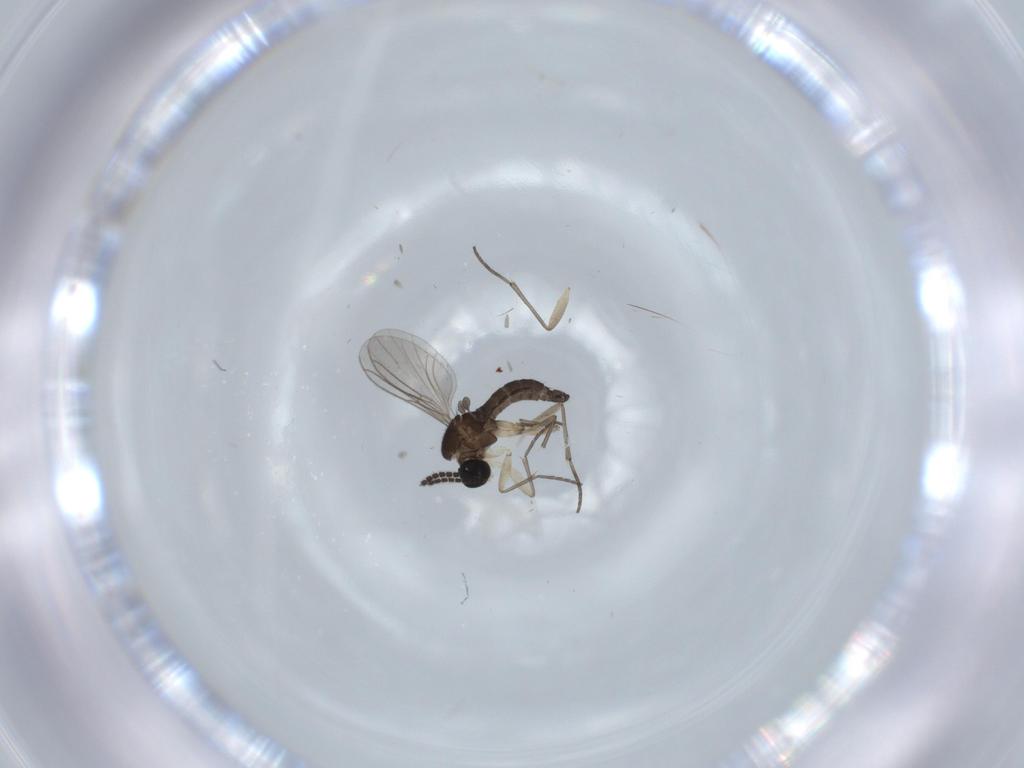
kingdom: Animalia
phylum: Arthropoda
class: Insecta
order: Diptera
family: Sciaridae
